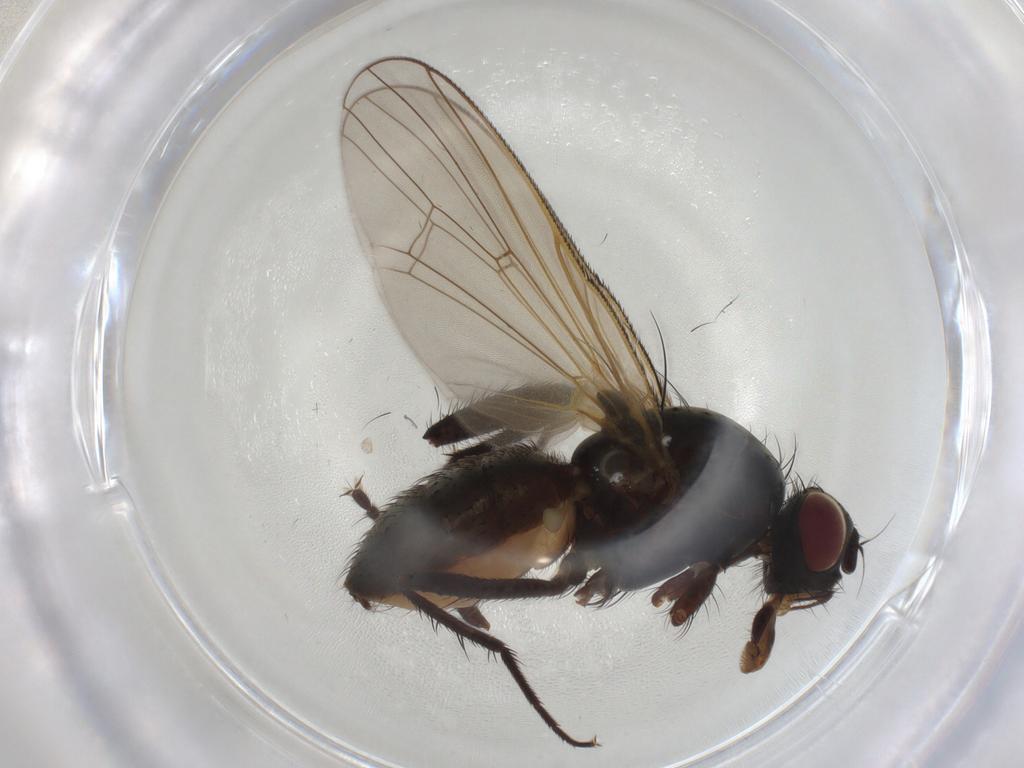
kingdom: Animalia
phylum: Arthropoda
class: Insecta
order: Diptera
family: Anthomyiidae
